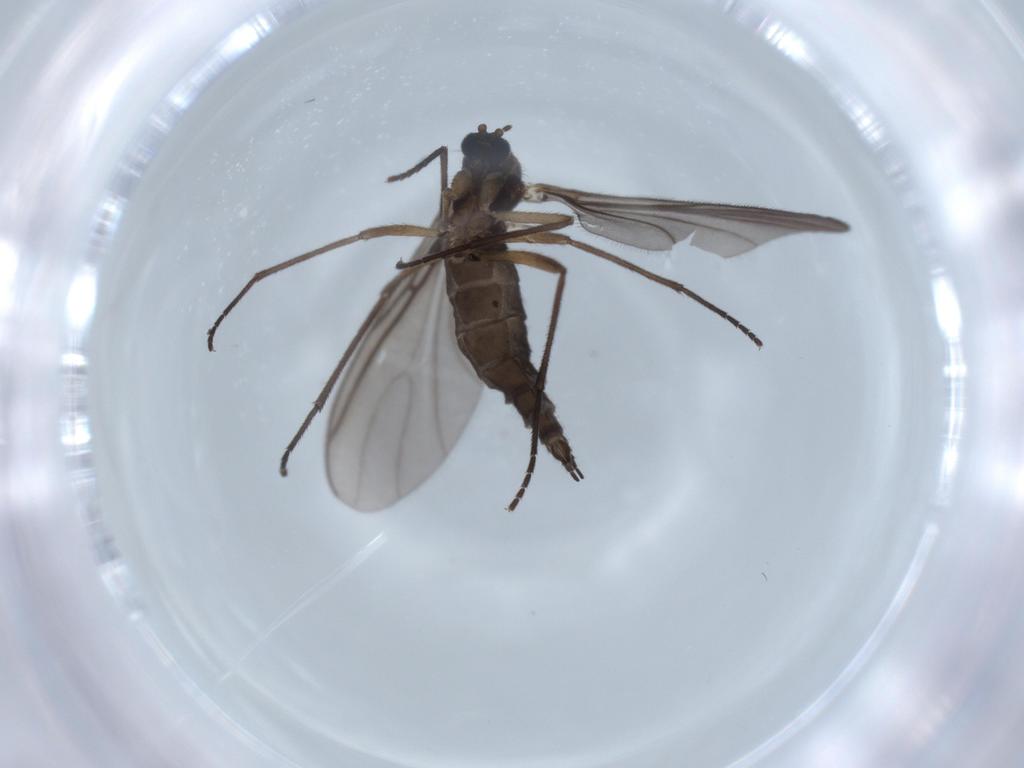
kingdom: Animalia
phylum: Arthropoda
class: Insecta
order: Diptera
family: Sciaridae
